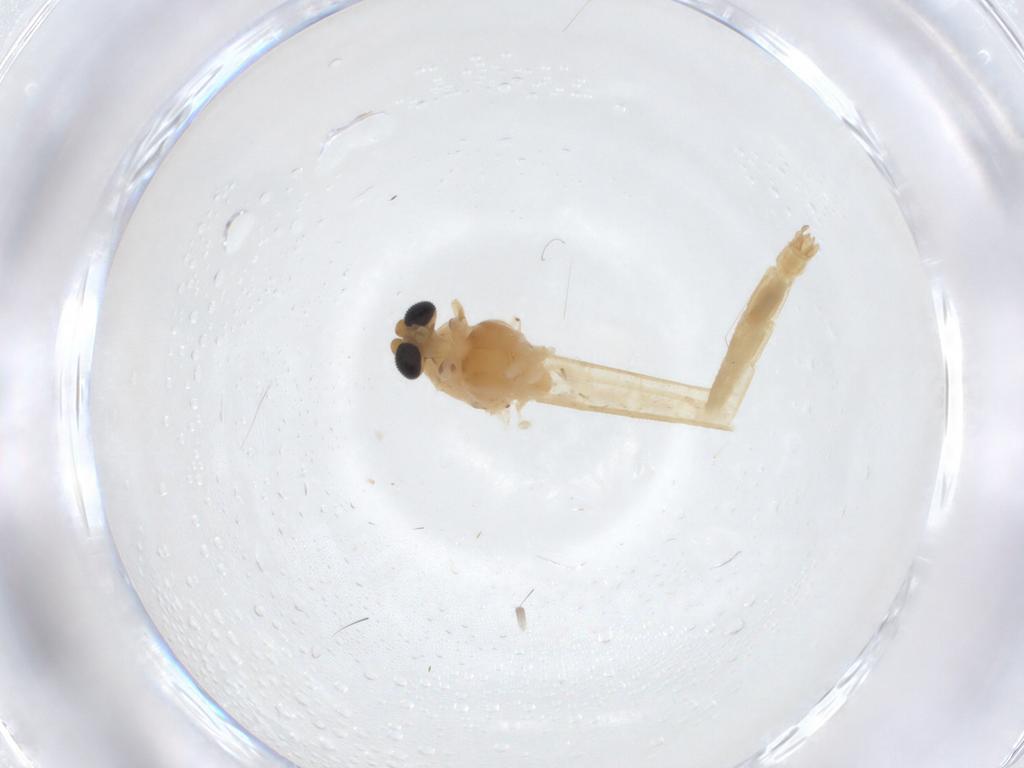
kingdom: Animalia
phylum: Arthropoda
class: Insecta
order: Diptera
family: Chironomidae
